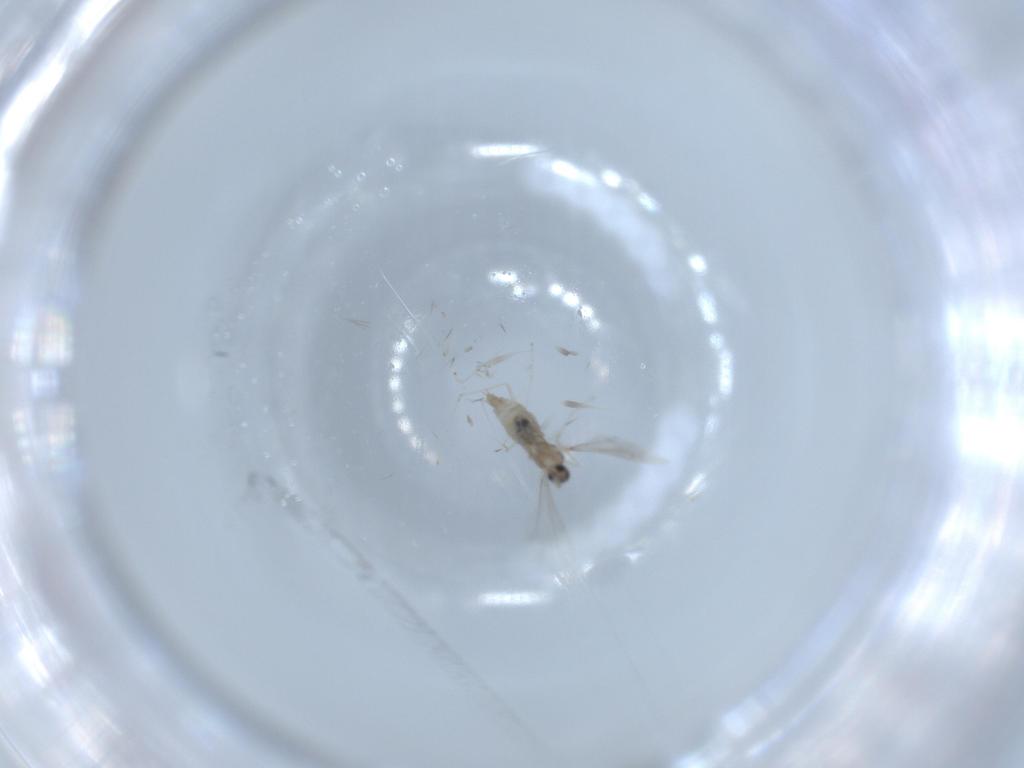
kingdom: Animalia
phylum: Arthropoda
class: Insecta
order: Diptera
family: Cecidomyiidae
